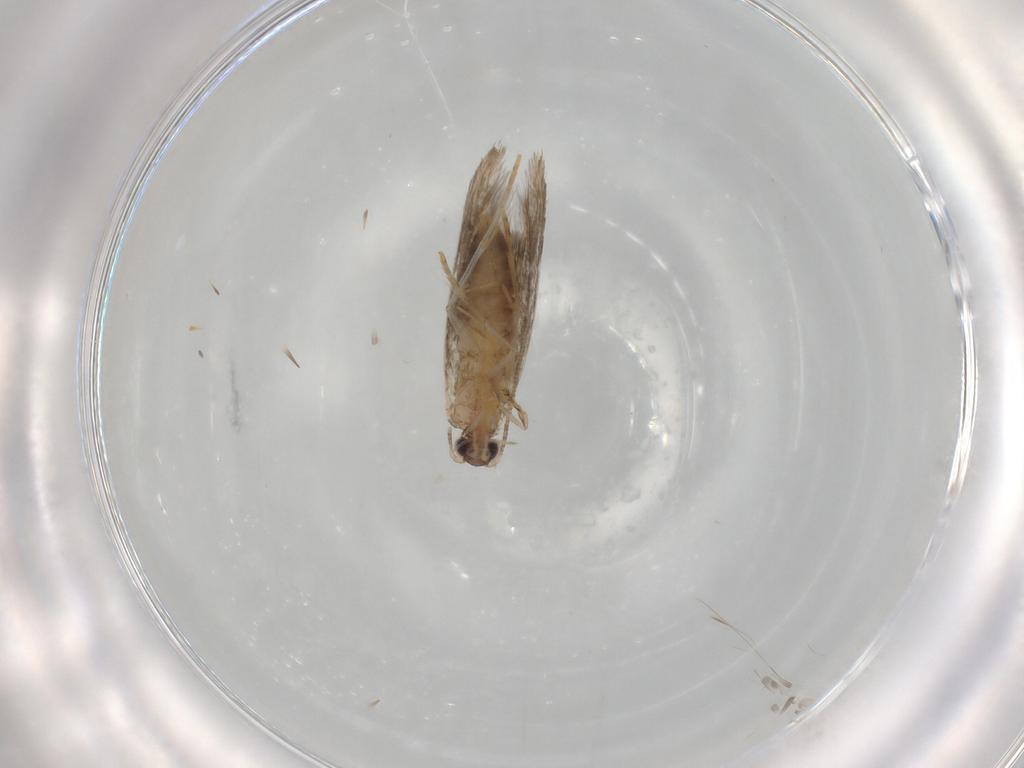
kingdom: Animalia
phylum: Arthropoda
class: Insecta
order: Lepidoptera
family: Tineidae
